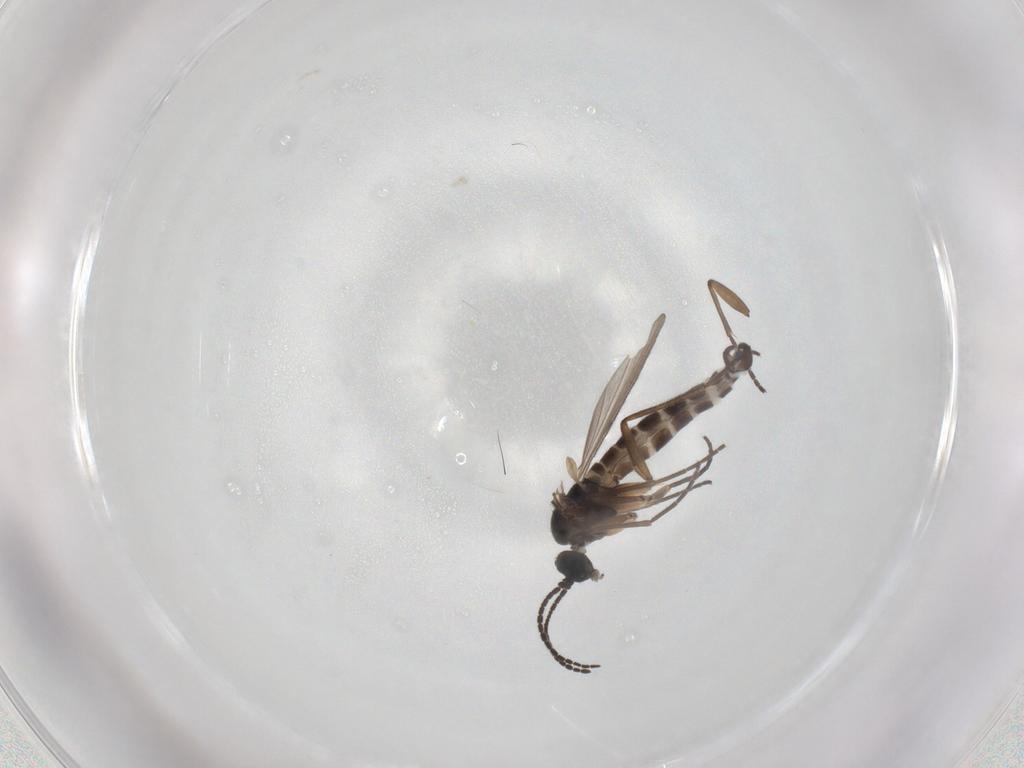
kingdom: Animalia
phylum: Arthropoda
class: Insecta
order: Diptera
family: Sciaridae
